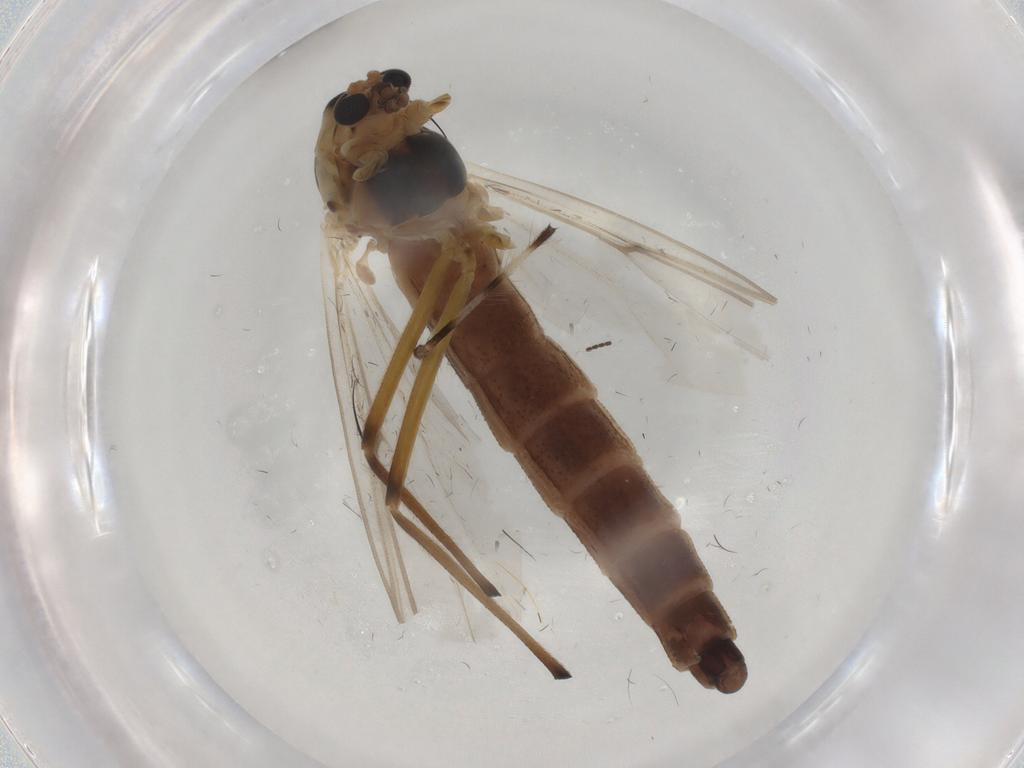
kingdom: Animalia
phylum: Arthropoda
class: Insecta
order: Diptera
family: Chironomidae
